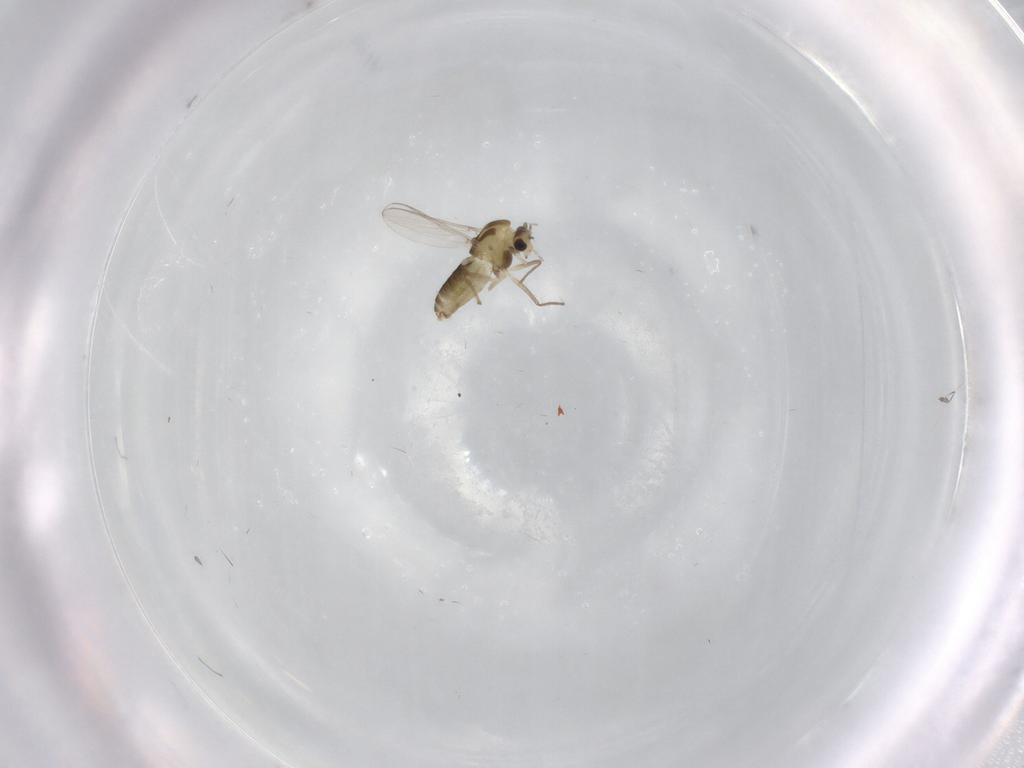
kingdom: Animalia
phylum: Arthropoda
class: Insecta
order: Diptera
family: Chironomidae
